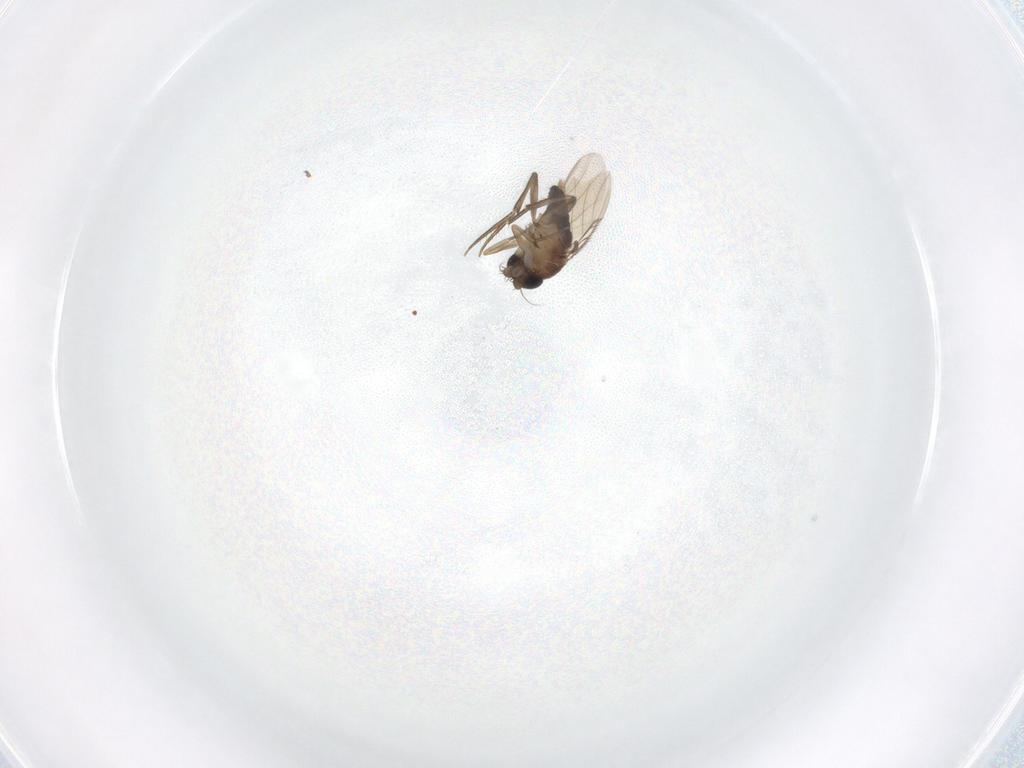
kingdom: Animalia
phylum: Arthropoda
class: Insecta
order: Diptera
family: Phoridae
